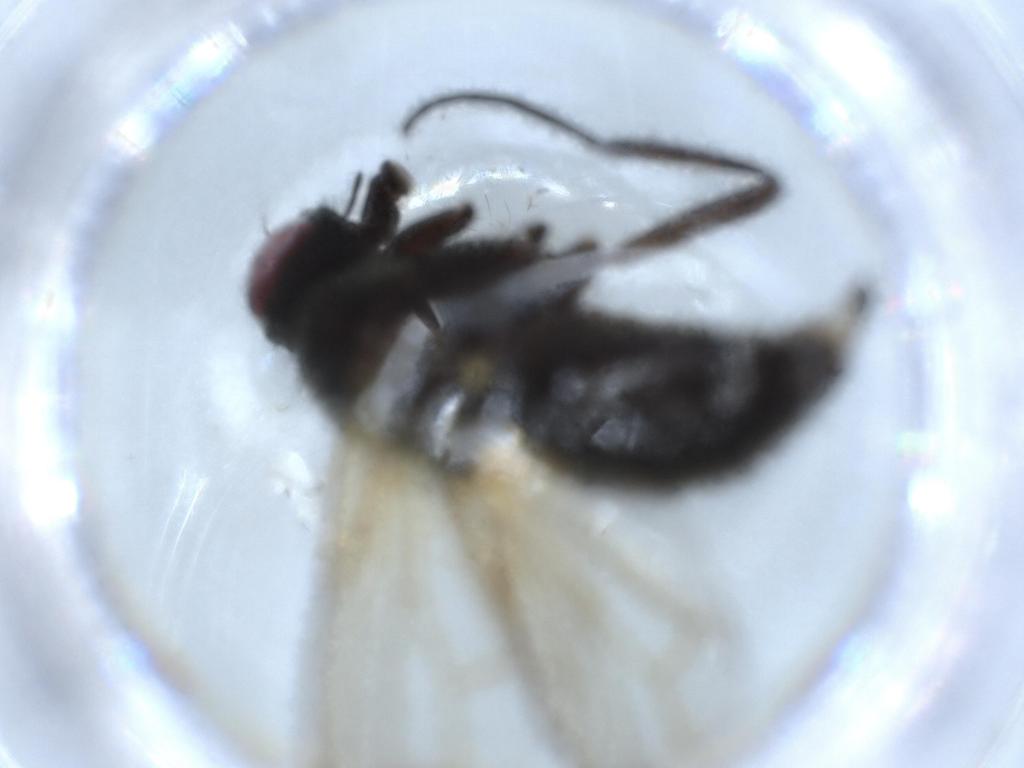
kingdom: Animalia
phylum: Arthropoda
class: Insecta
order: Diptera
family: Muscidae
